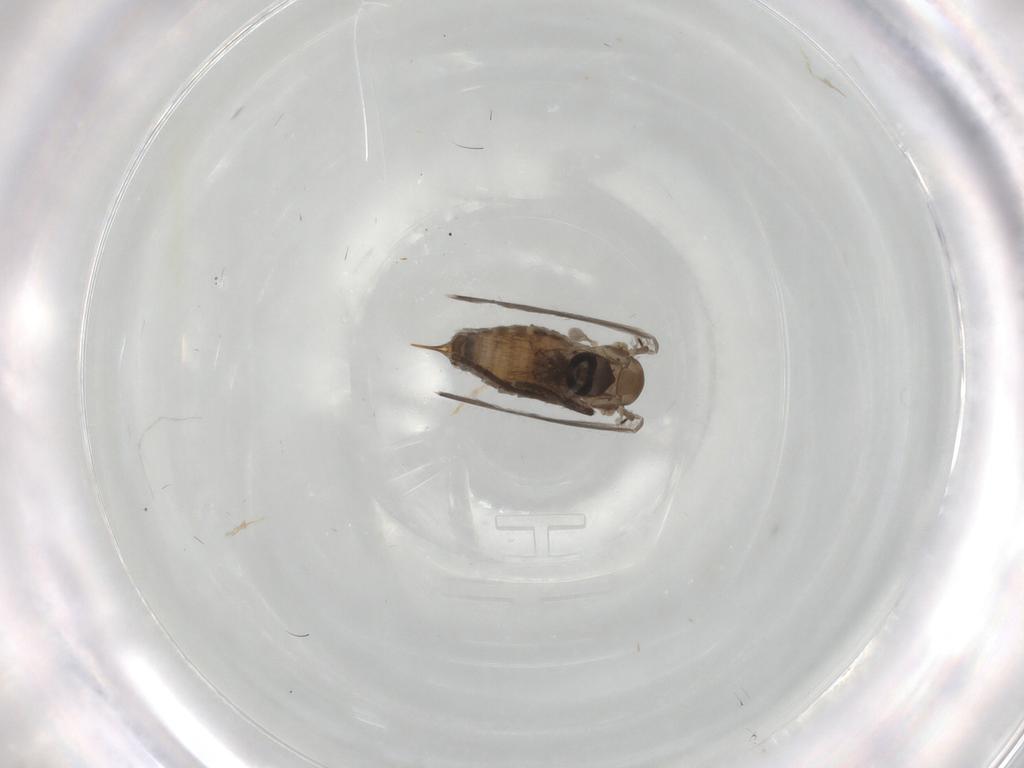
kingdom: Animalia
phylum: Arthropoda
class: Insecta
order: Diptera
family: Psychodidae
